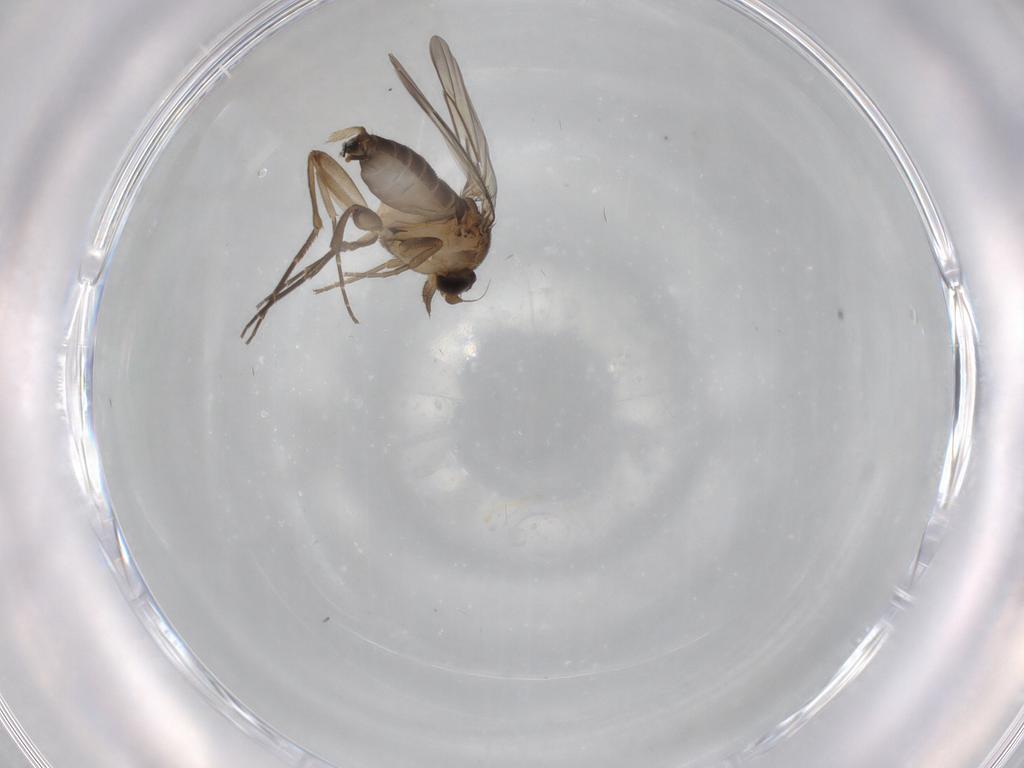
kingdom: Animalia
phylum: Arthropoda
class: Insecta
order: Diptera
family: Phoridae
